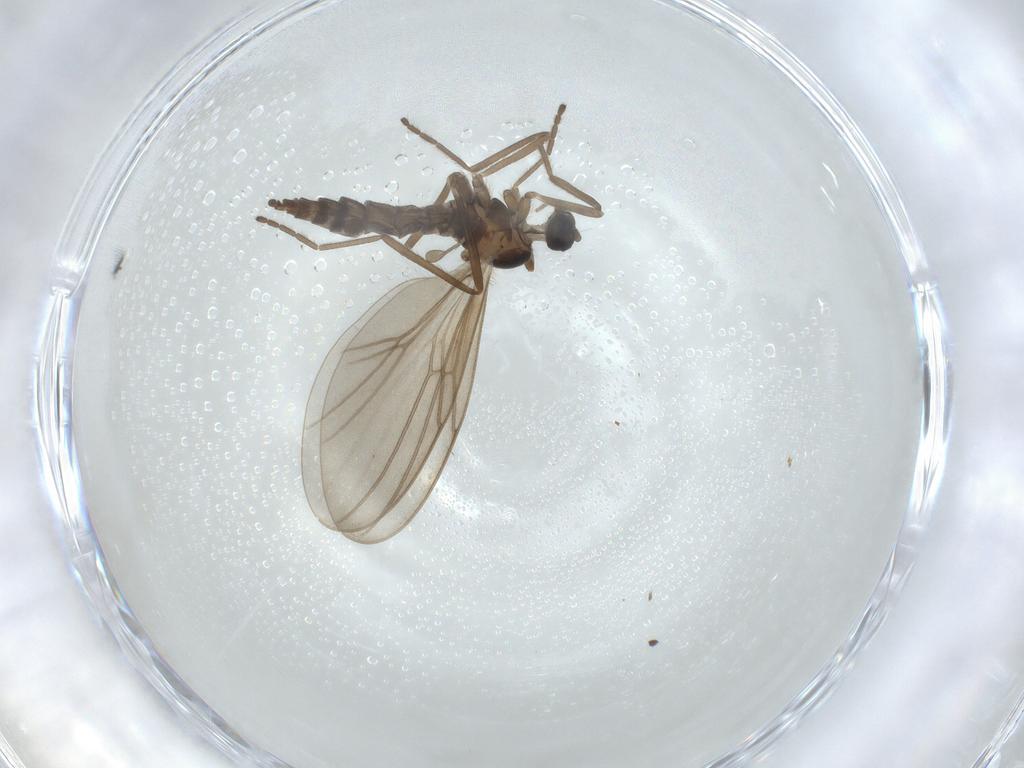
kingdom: Animalia
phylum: Arthropoda
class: Insecta
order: Diptera
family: Cecidomyiidae
